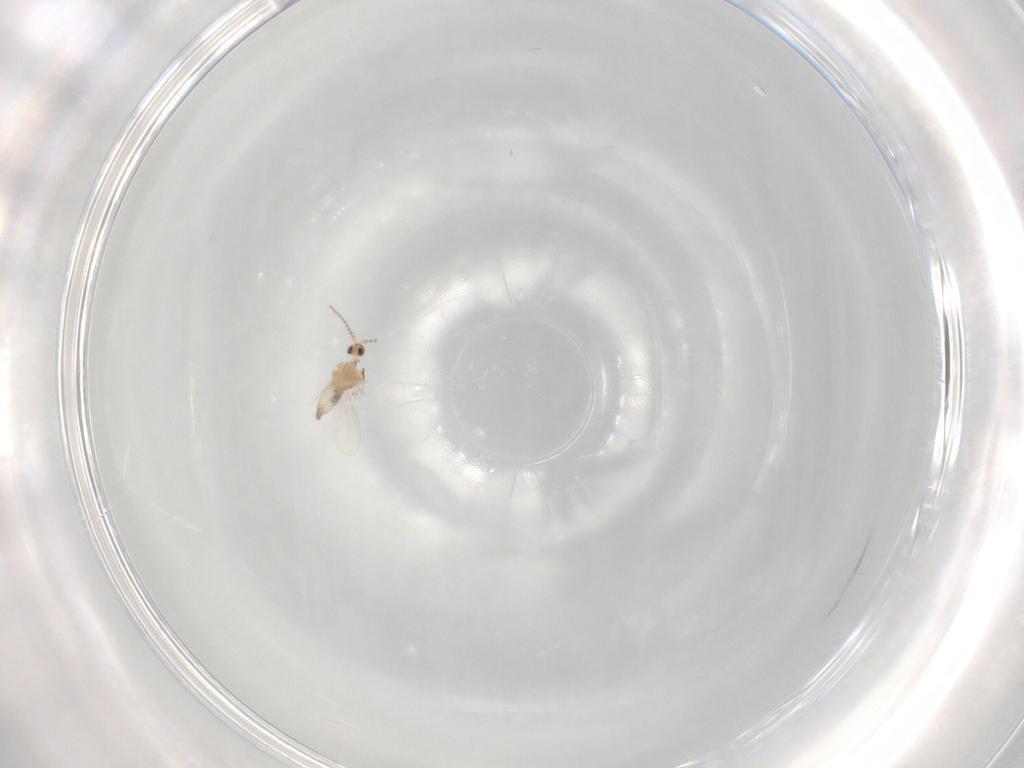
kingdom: Animalia
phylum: Arthropoda
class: Insecta
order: Diptera
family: Cecidomyiidae
